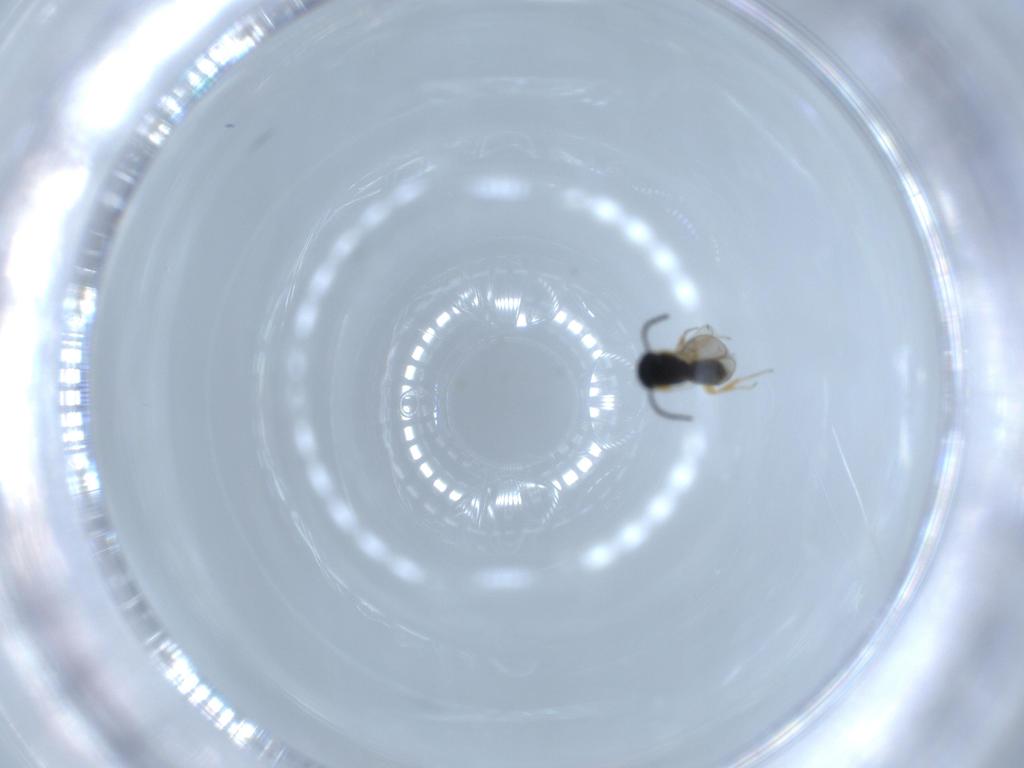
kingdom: Animalia
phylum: Arthropoda
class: Insecta
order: Hymenoptera
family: Scelionidae
